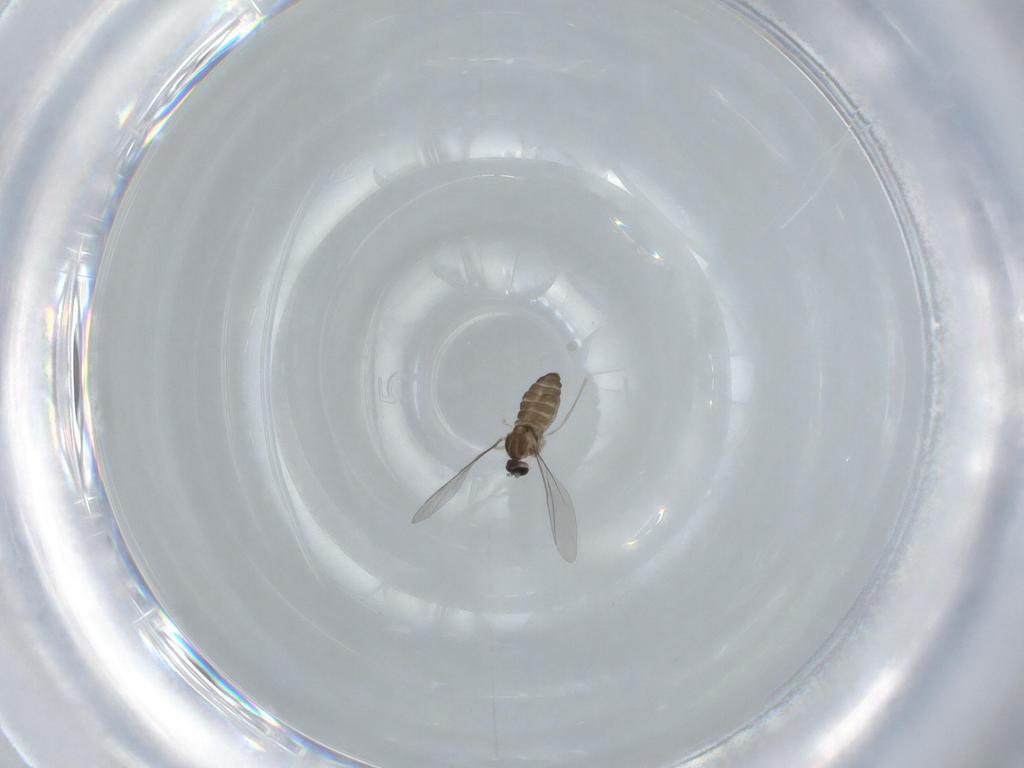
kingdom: Animalia
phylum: Arthropoda
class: Insecta
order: Diptera
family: Cecidomyiidae
